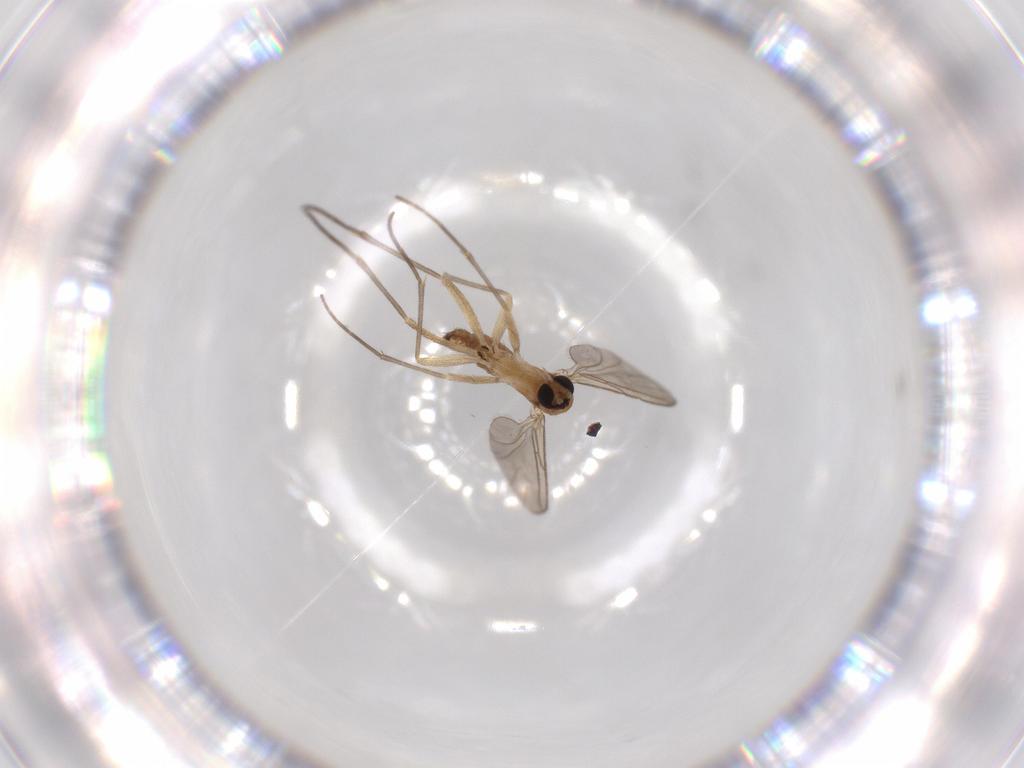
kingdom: Animalia
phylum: Arthropoda
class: Insecta
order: Diptera
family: Sciaridae
